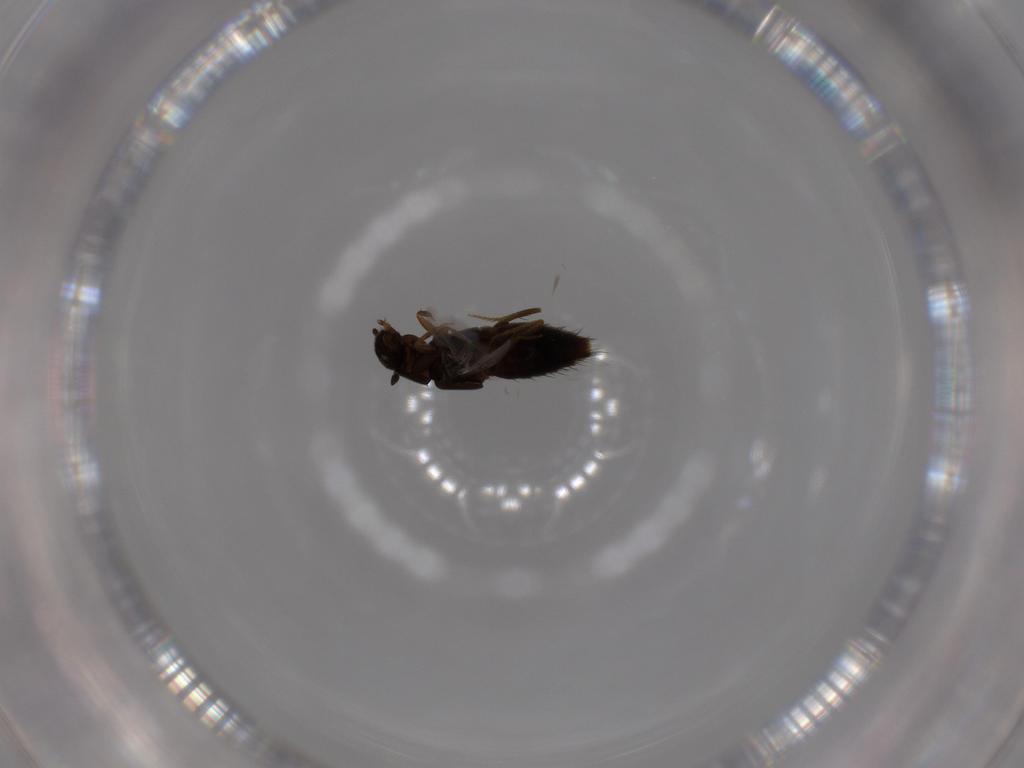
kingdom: Animalia
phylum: Arthropoda
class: Insecta
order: Coleoptera
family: Staphylinidae
